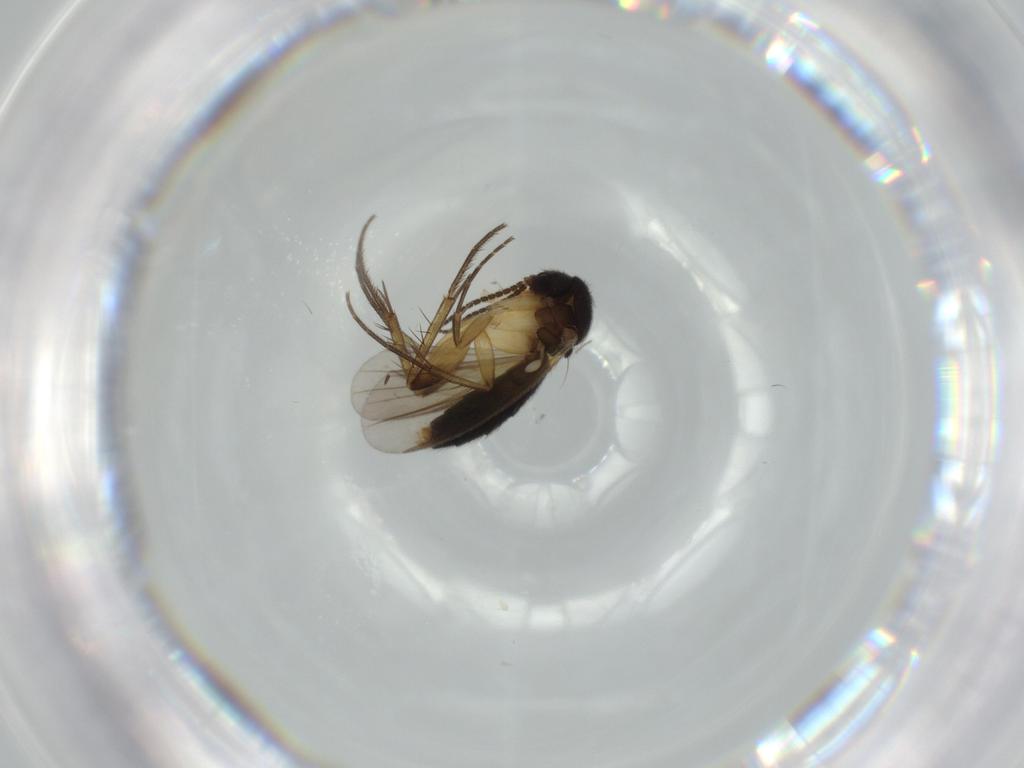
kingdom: Animalia
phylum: Arthropoda
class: Insecta
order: Diptera
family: Mycetophilidae
